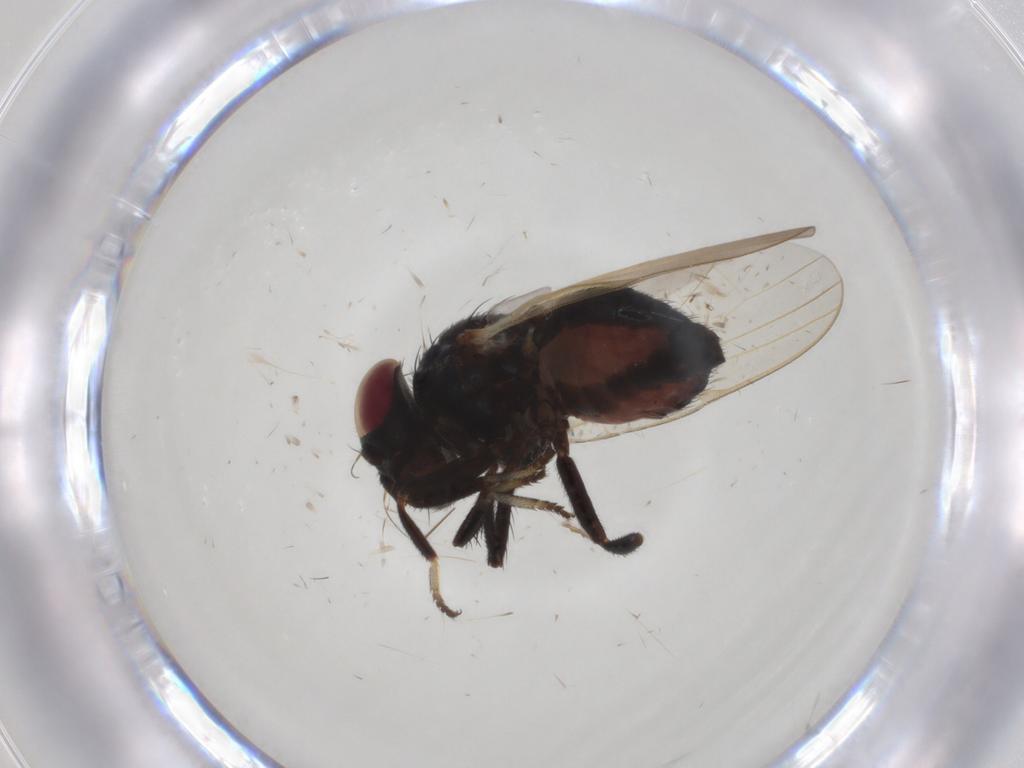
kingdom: Animalia
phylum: Arthropoda
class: Insecta
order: Diptera
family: Lonchaeidae
